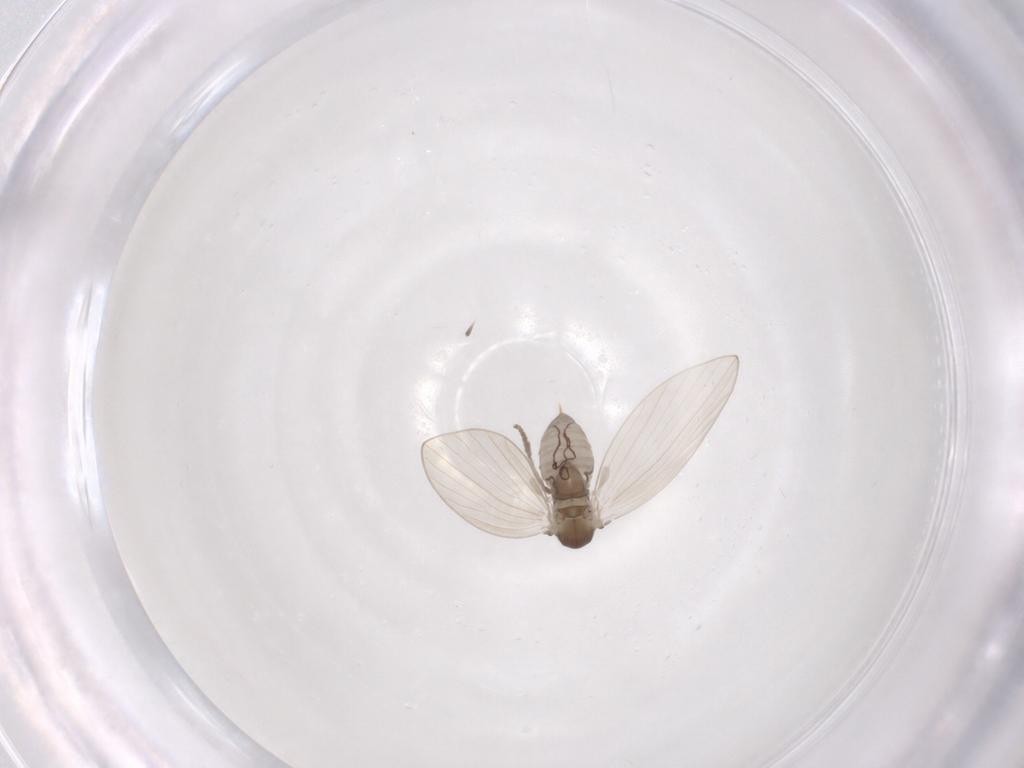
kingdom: Animalia
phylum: Arthropoda
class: Insecta
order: Diptera
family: Psychodidae
